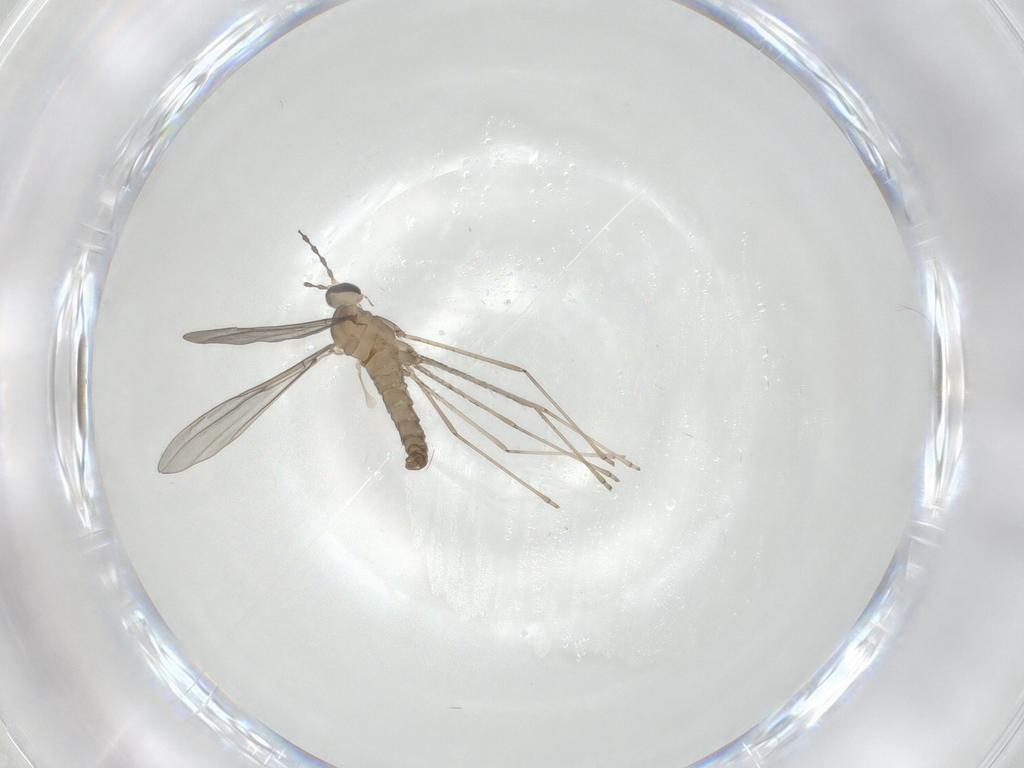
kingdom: Animalia
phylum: Arthropoda
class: Insecta
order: Diptera
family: Cecidomyiidae
